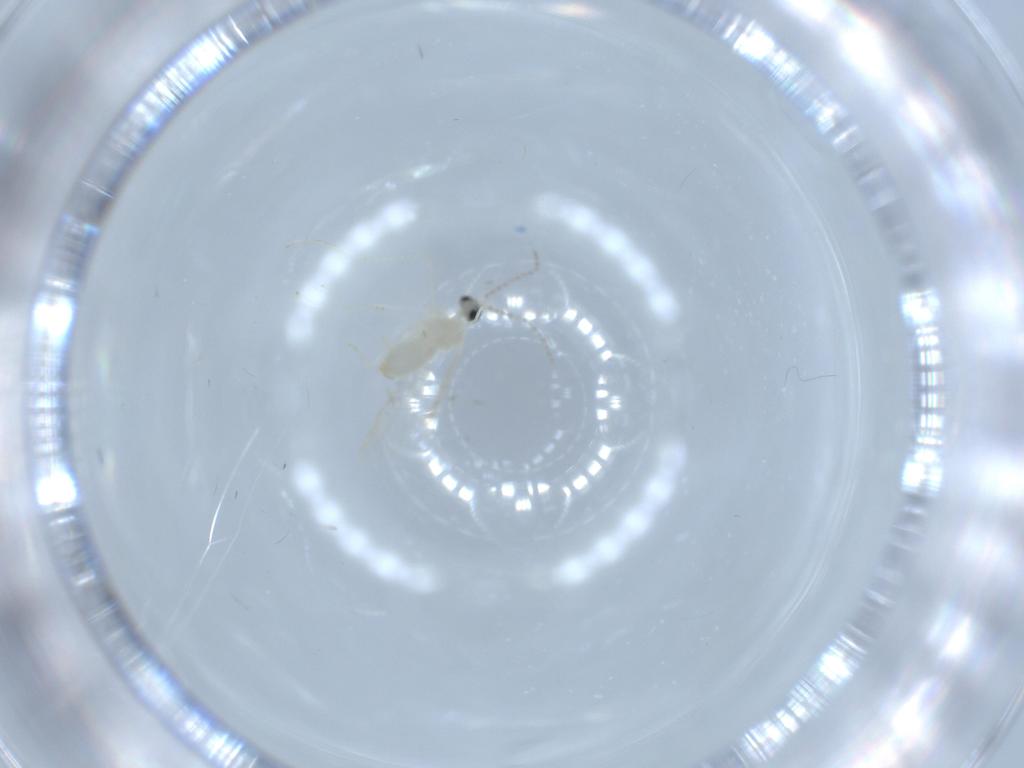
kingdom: Animalia
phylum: Arthropoda
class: Insecta
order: Diptera
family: Cecidomyiidae
